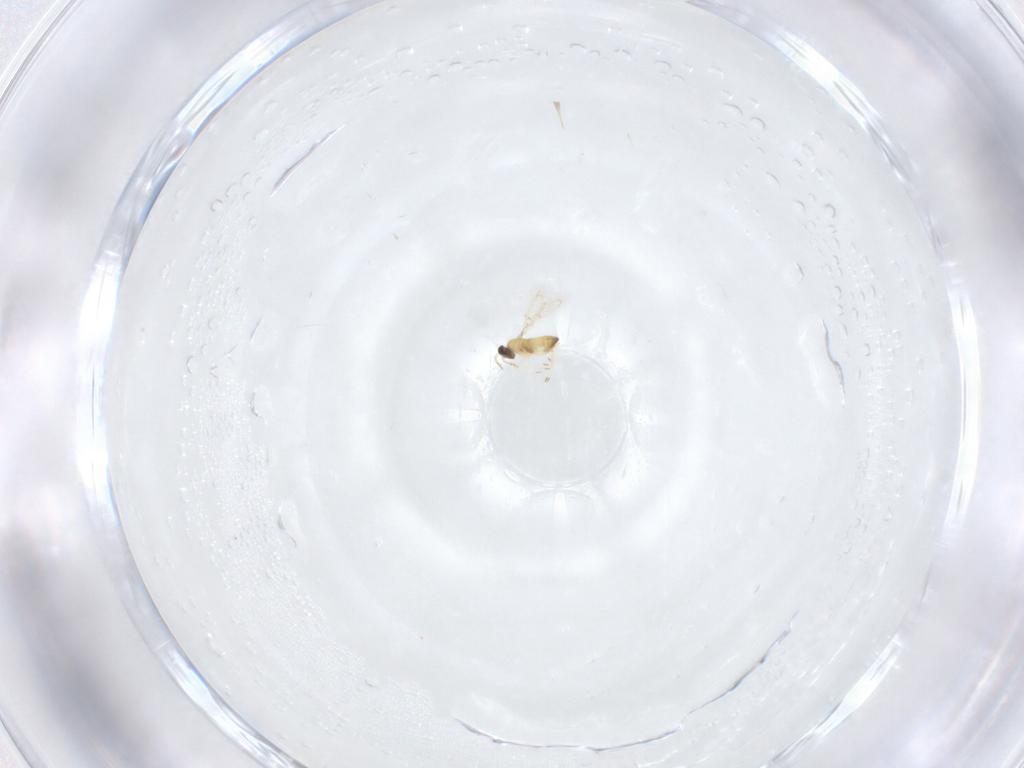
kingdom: Animalia
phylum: Arthropoda
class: Insecta
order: Hymenoptera
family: Trichogrammatidae
